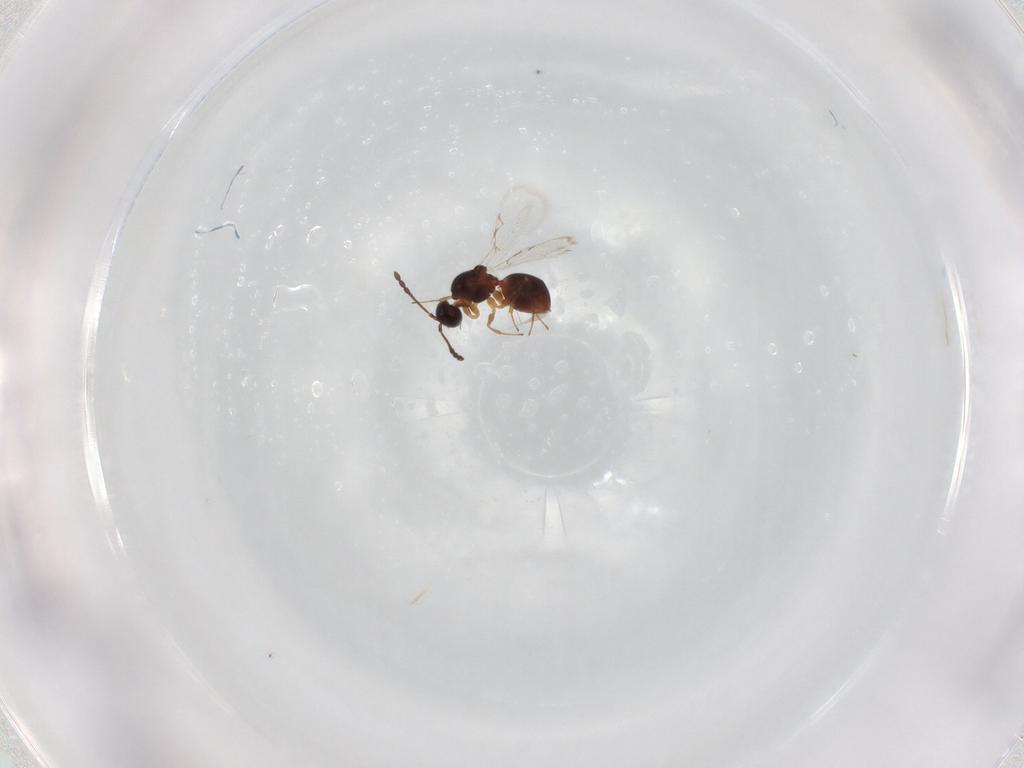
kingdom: Animalia
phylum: Arthropoda
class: Insecta
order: Hymenoptera
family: Figitidae
